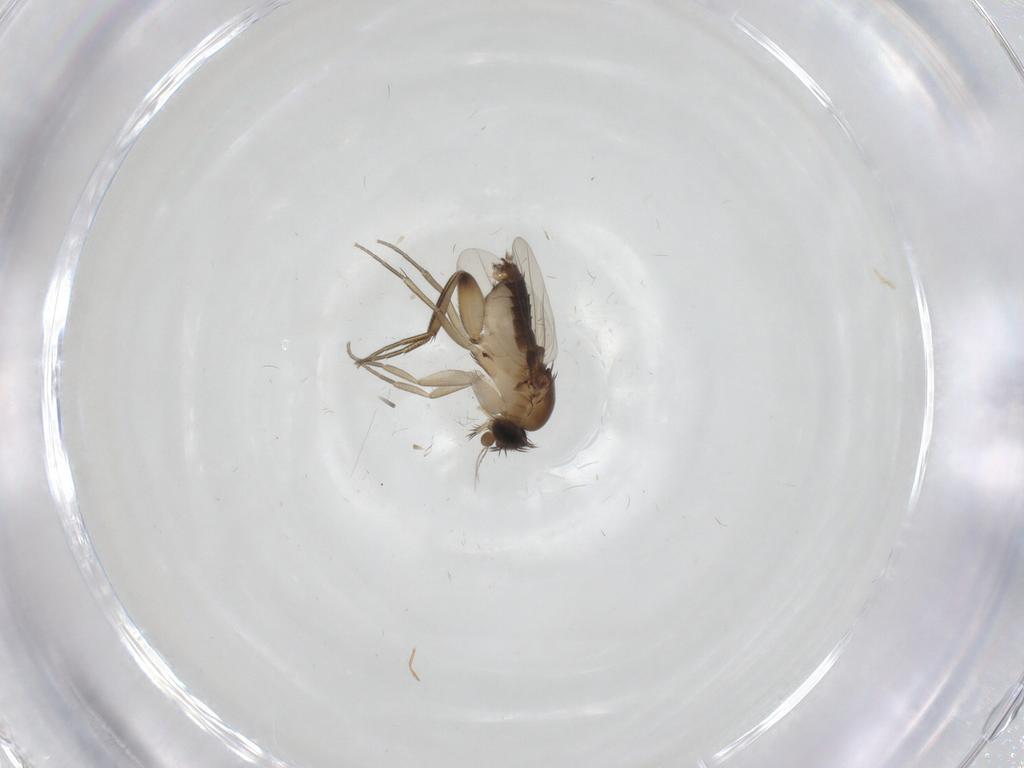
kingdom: Animalia
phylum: Arthropoda
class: Insecta
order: Diptera
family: Phoridae
